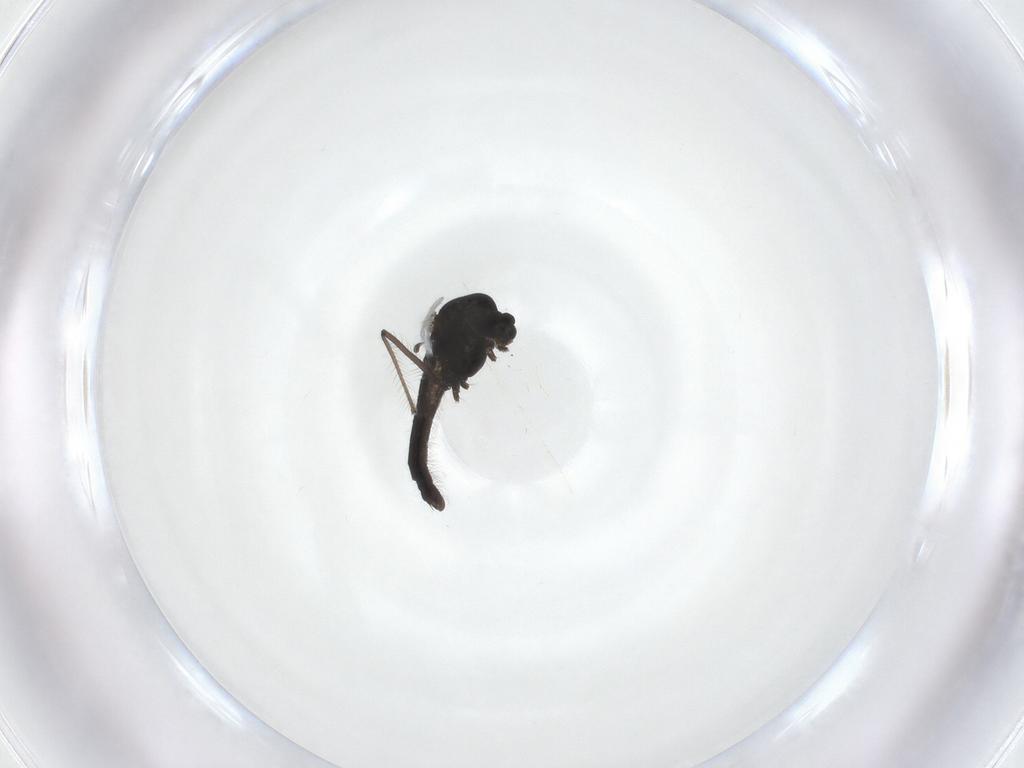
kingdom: Animalia
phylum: Arthropoda
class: Insecta
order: Diptera
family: Chironomidae
